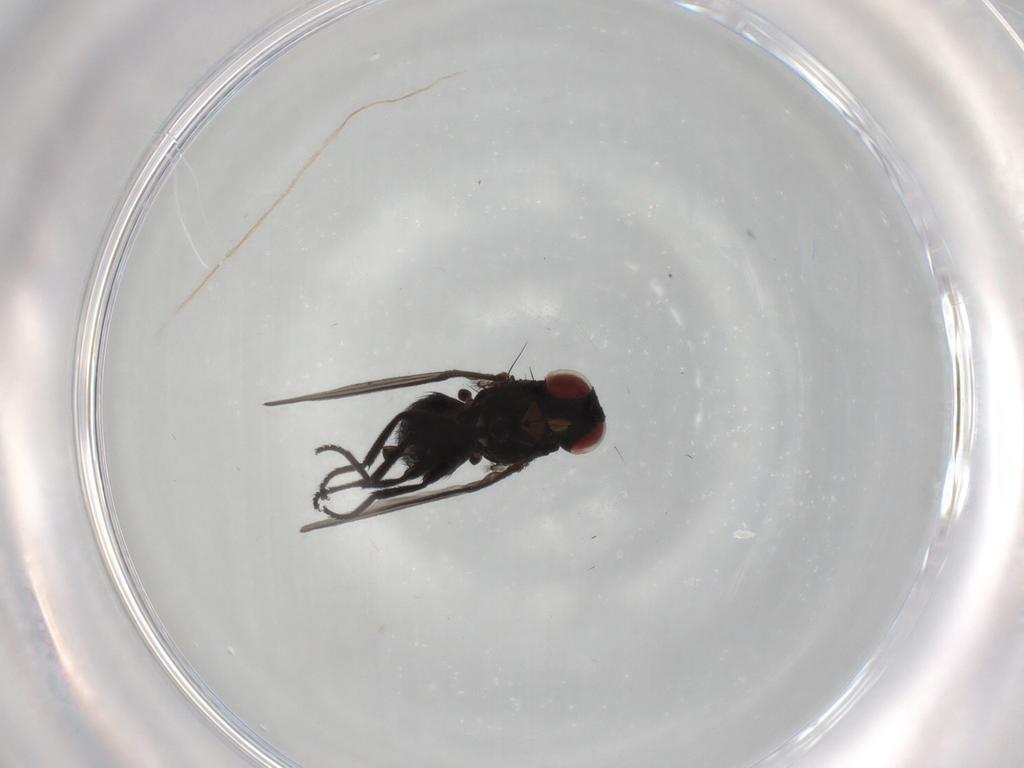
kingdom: Animalia
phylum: Arthropoda
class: Insecta
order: Diptera
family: Agromyzidae
